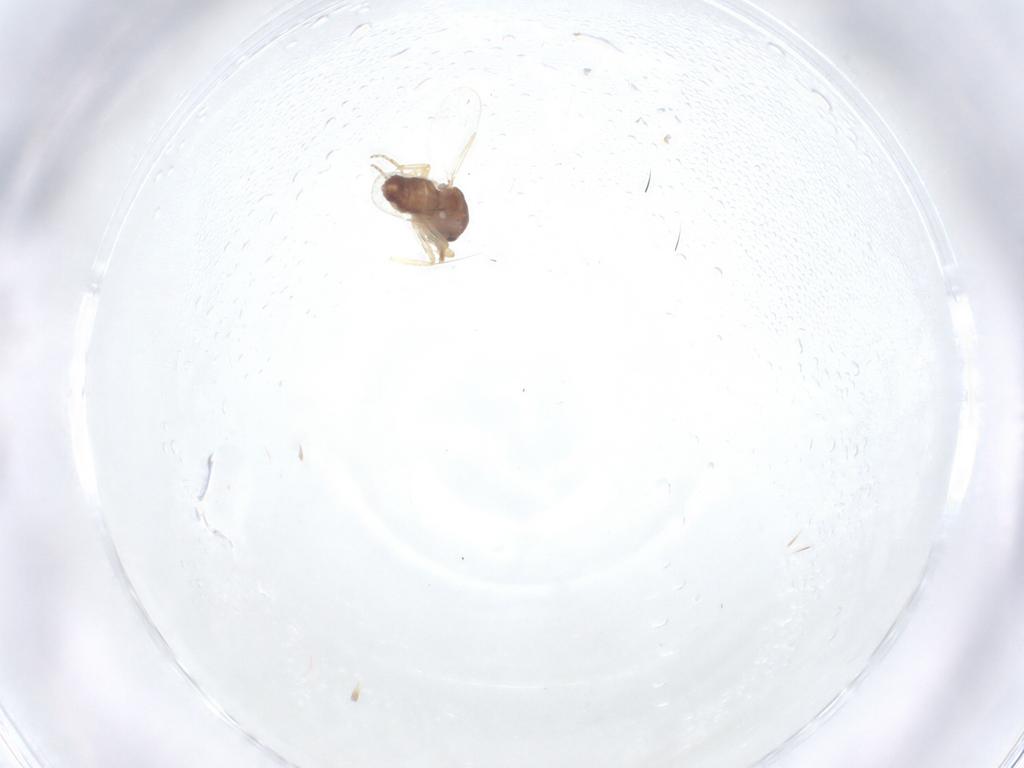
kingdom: Animalia
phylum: Arthropoda
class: Insecta
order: Diptera
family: Ceratopogonidae
